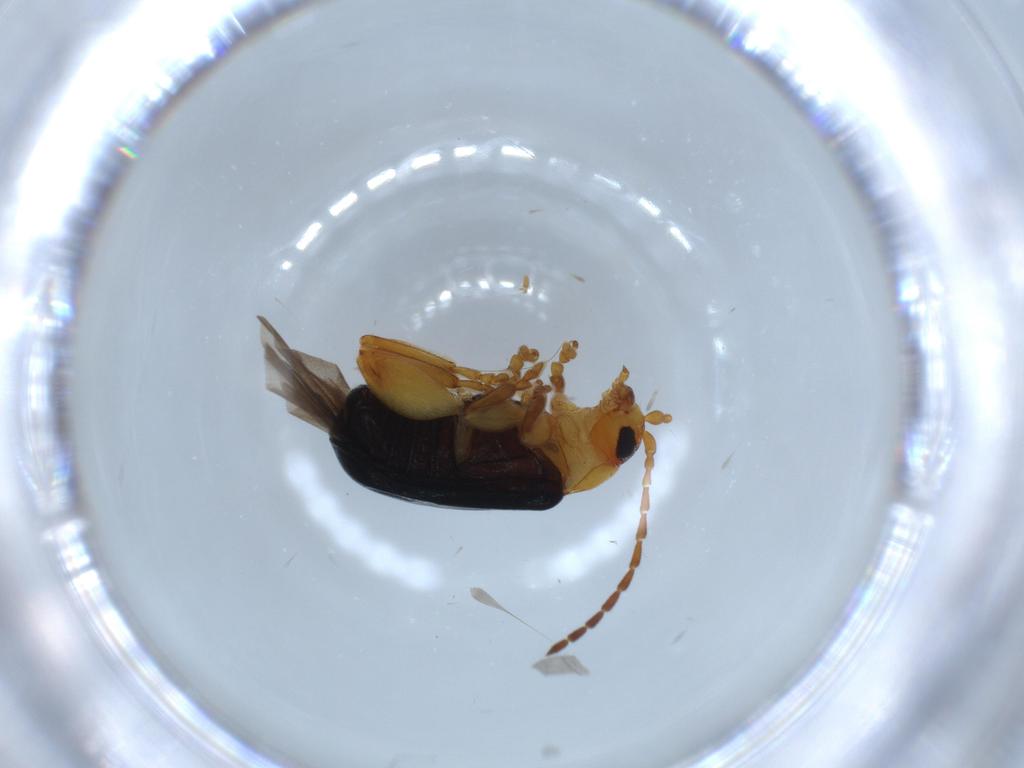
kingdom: Animalia
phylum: Arthropoda
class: Insecta
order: Coleoptera
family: Chrysomelidae
